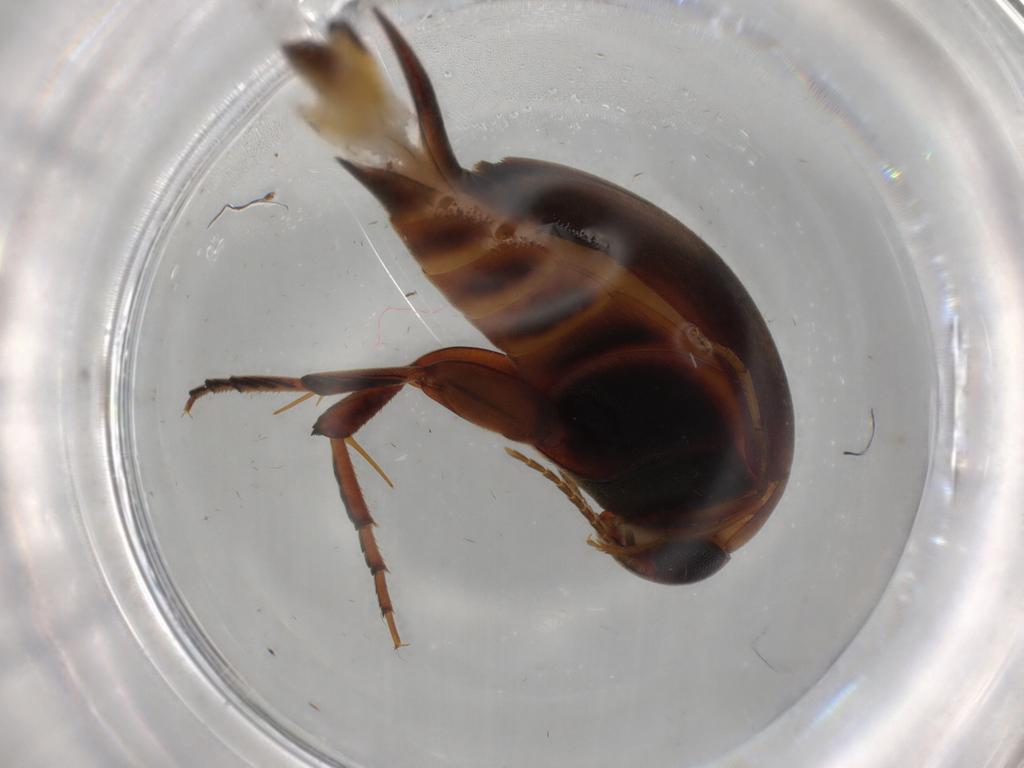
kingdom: Animalia
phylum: Arthropoda
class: Insecta
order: Coleoptera
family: Mordellidae
